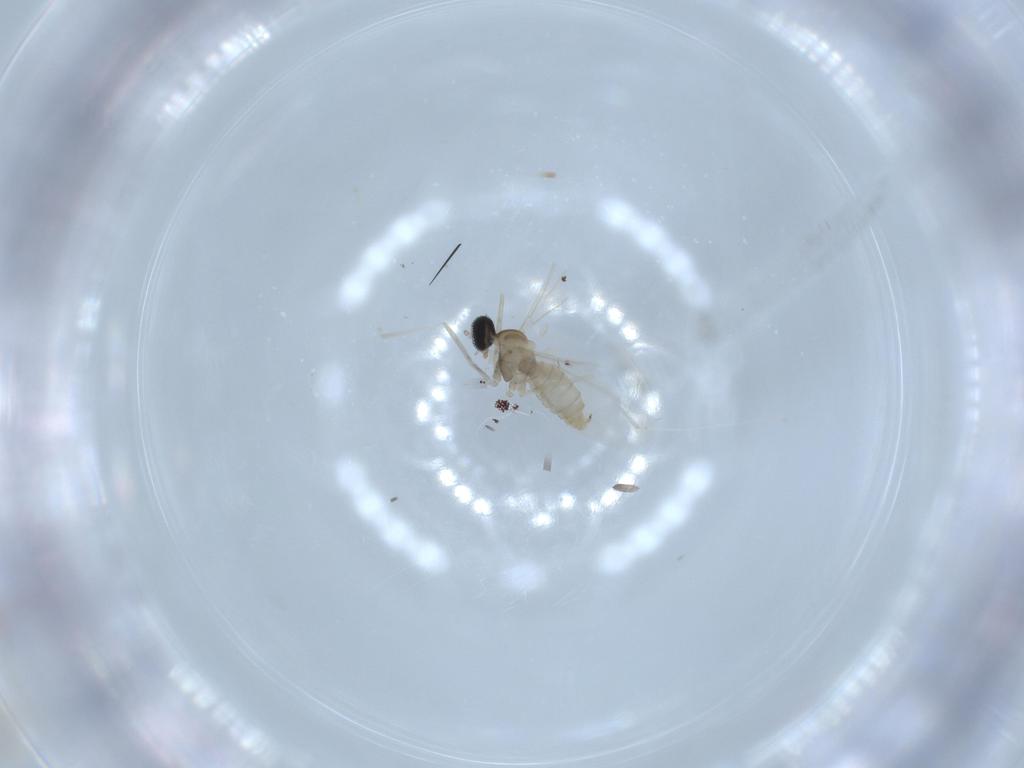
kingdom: Animalia
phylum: Arthropoda
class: Insecta
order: Diptera
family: Cecidomyiidae
